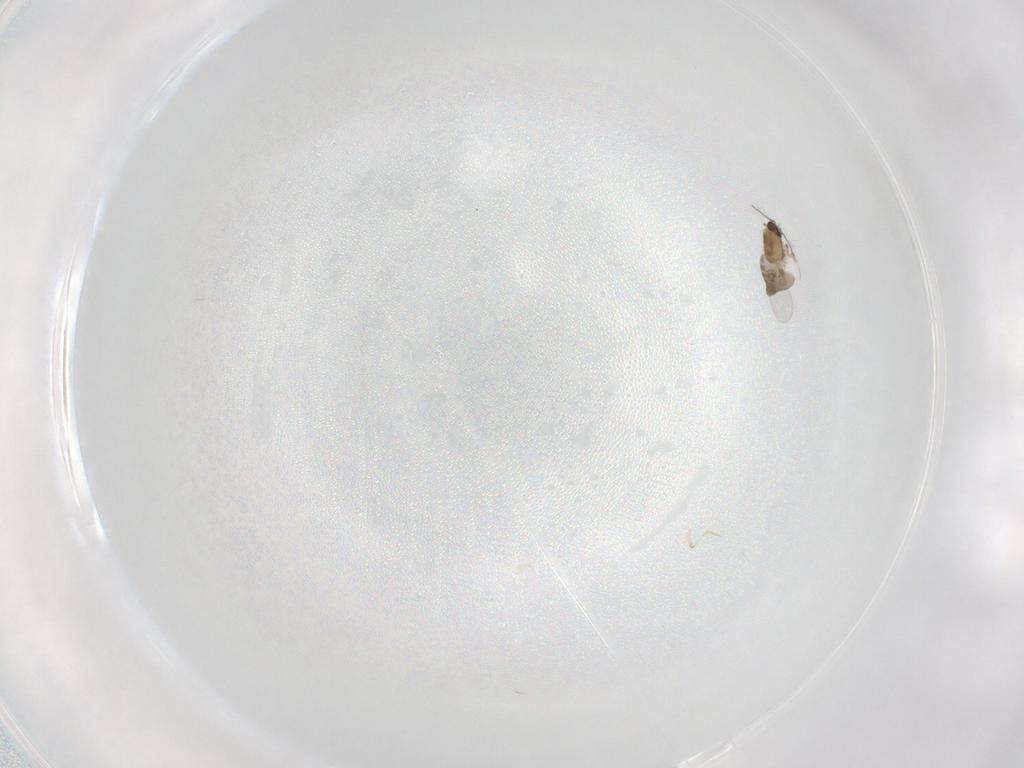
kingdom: Animalia
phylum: Arthropoda
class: Insecta
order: Diptera
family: Ceratopogonidae
